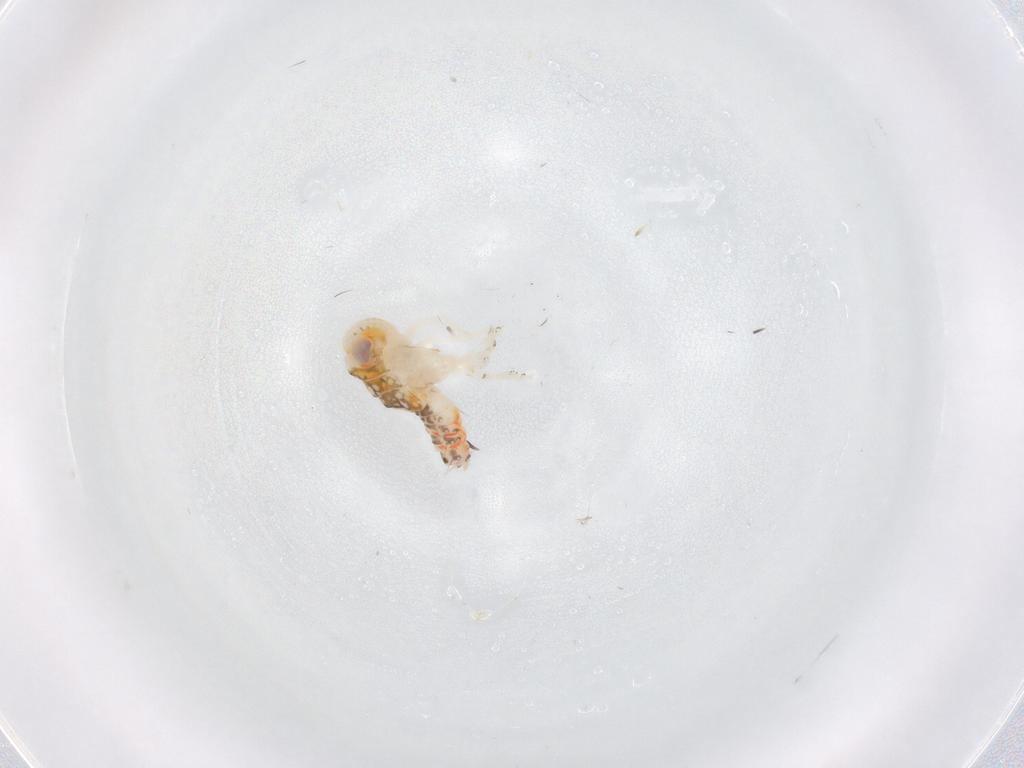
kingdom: Animalia
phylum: Arthropoda
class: Insecta
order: Hemiptera
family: Nogodinidae
